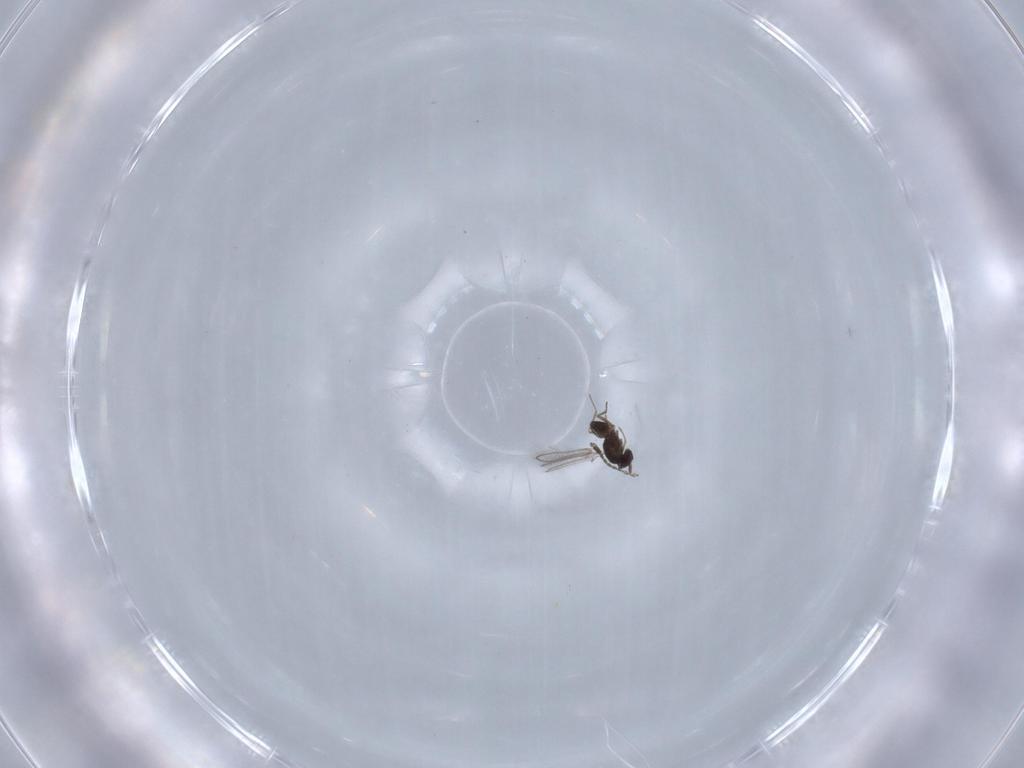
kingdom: Animalia
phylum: Arthropoda
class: Insecta
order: Hymenoptera
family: Mymaridae
